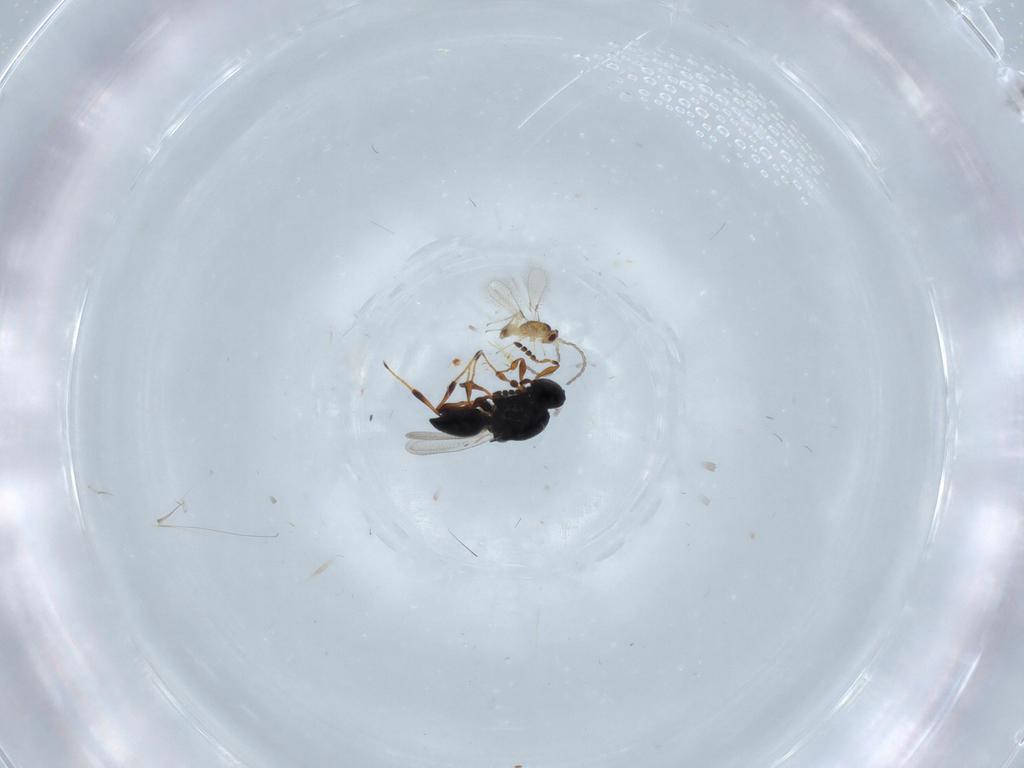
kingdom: Animalia
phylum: Arthropoda
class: Insecta
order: Hymenoptera
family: Platygastridae
